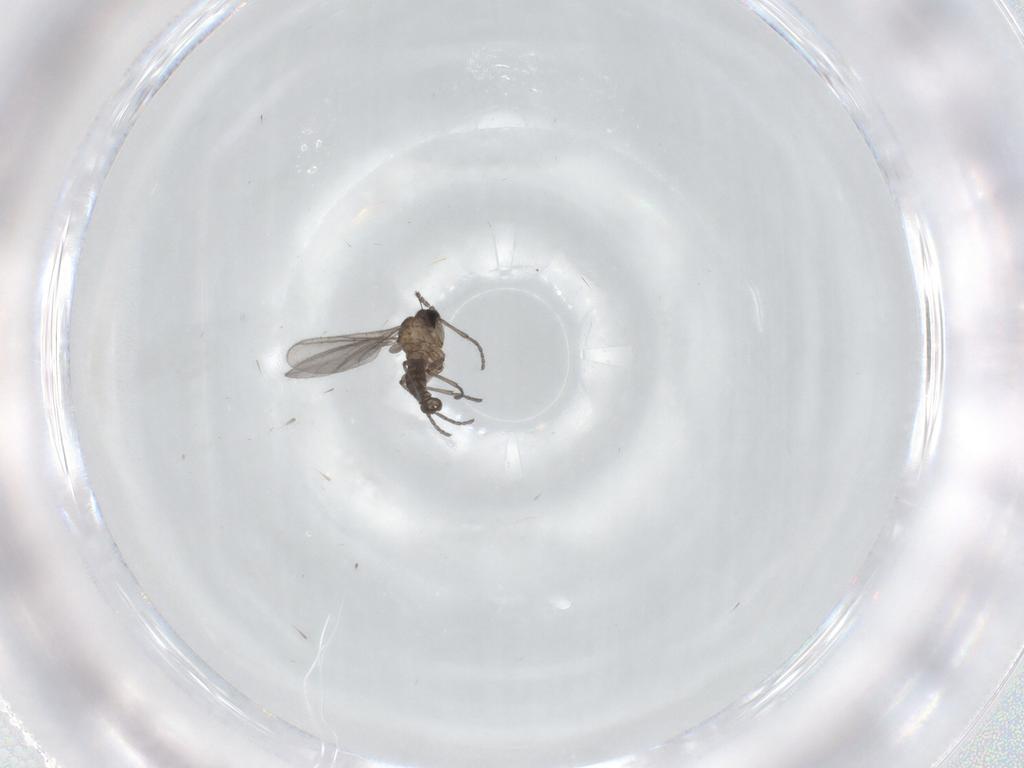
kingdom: Animalia
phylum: Arthropoda
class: Insecta
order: Diptera
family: Sciaridae
